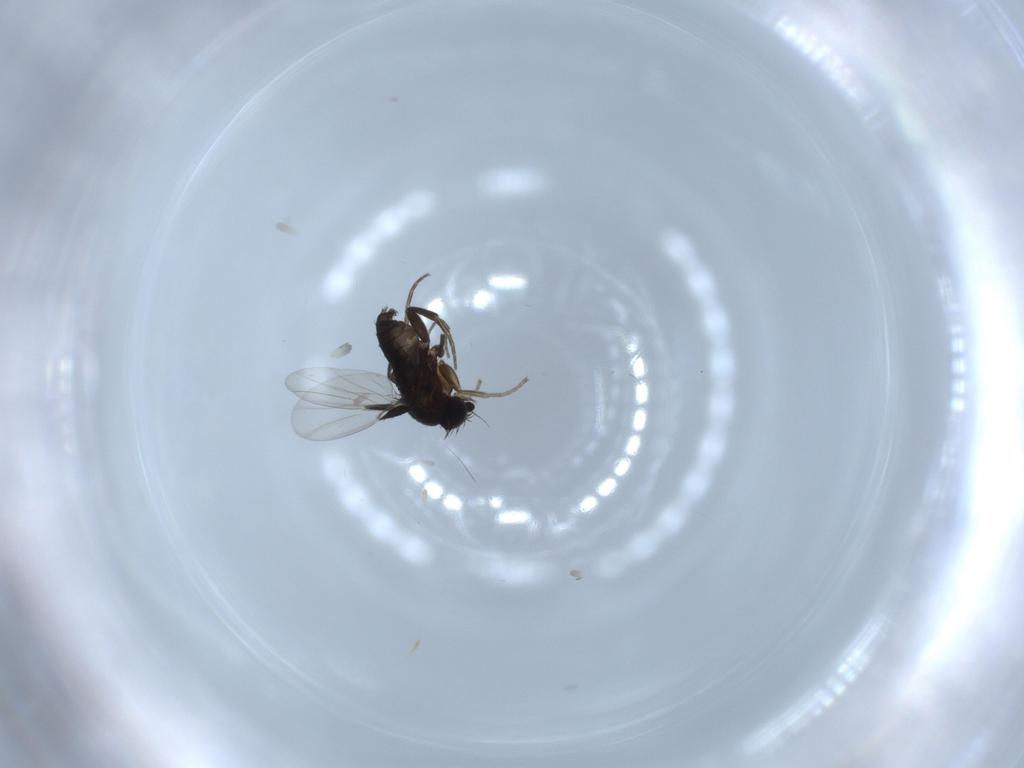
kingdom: Animalia
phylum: Arthropoda
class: Insecta
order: Diptera
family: Phoridae
